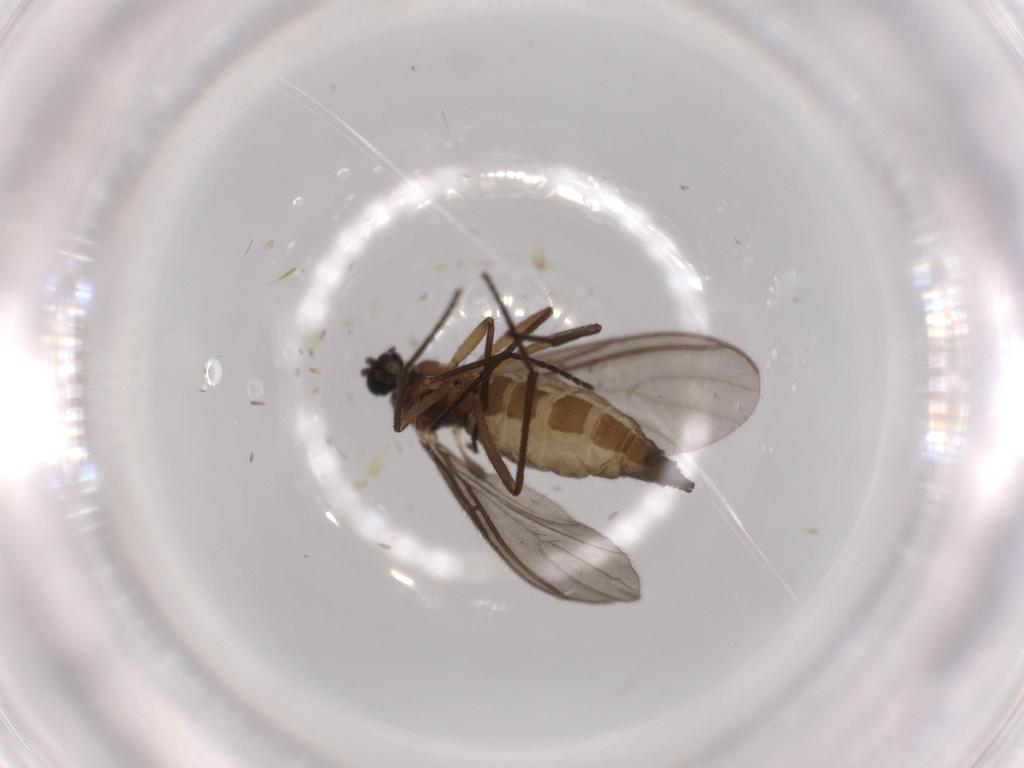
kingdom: Animalia
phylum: Arthropoda
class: Insecta
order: Diptera
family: Sciaridae
